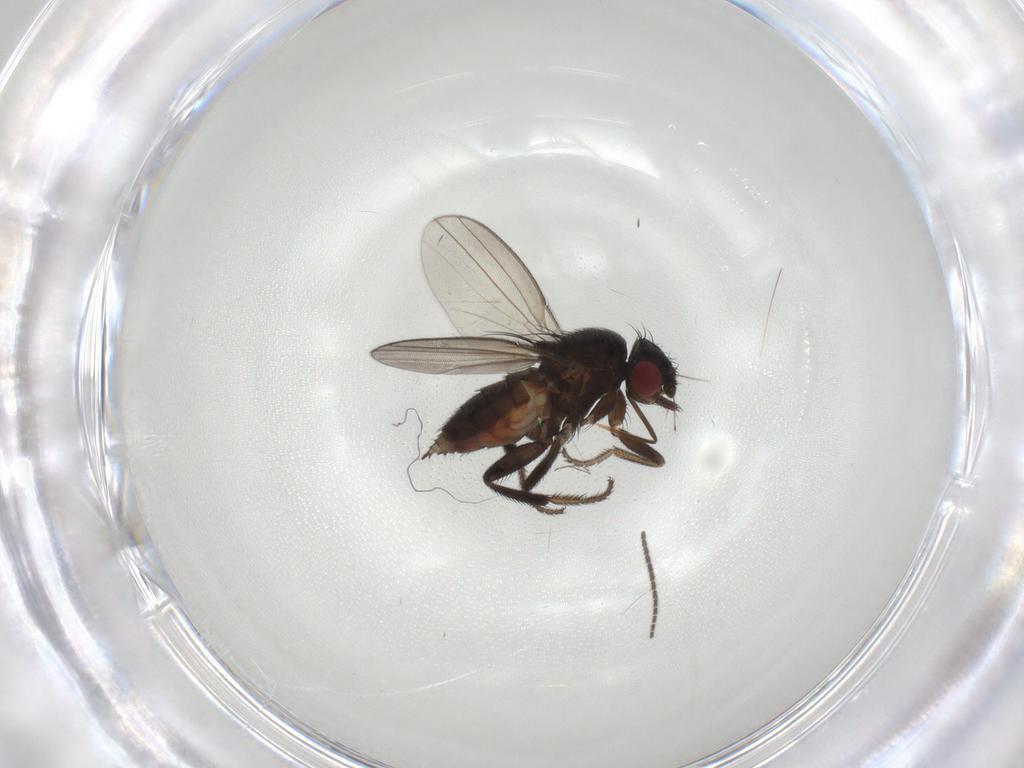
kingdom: Animalia
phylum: Arthropoda
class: Insecta
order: Diptera
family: Milichiidae
